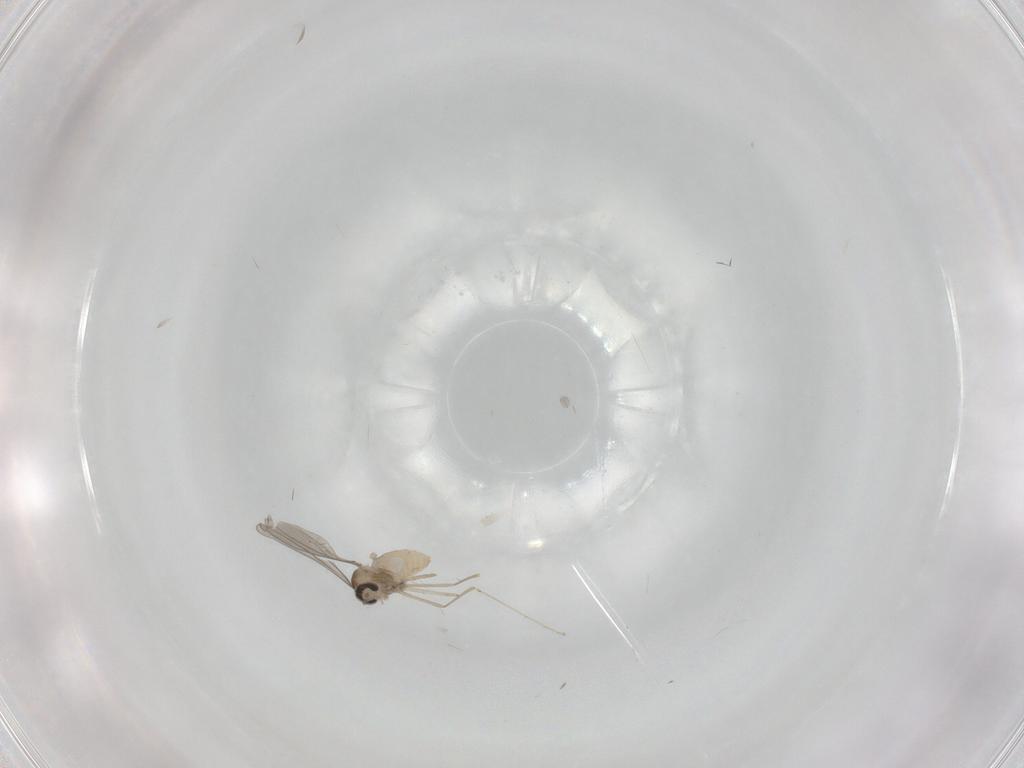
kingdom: Animalia
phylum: Arthropoda
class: Insecta
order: Diptera
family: Cecidomyiidae
